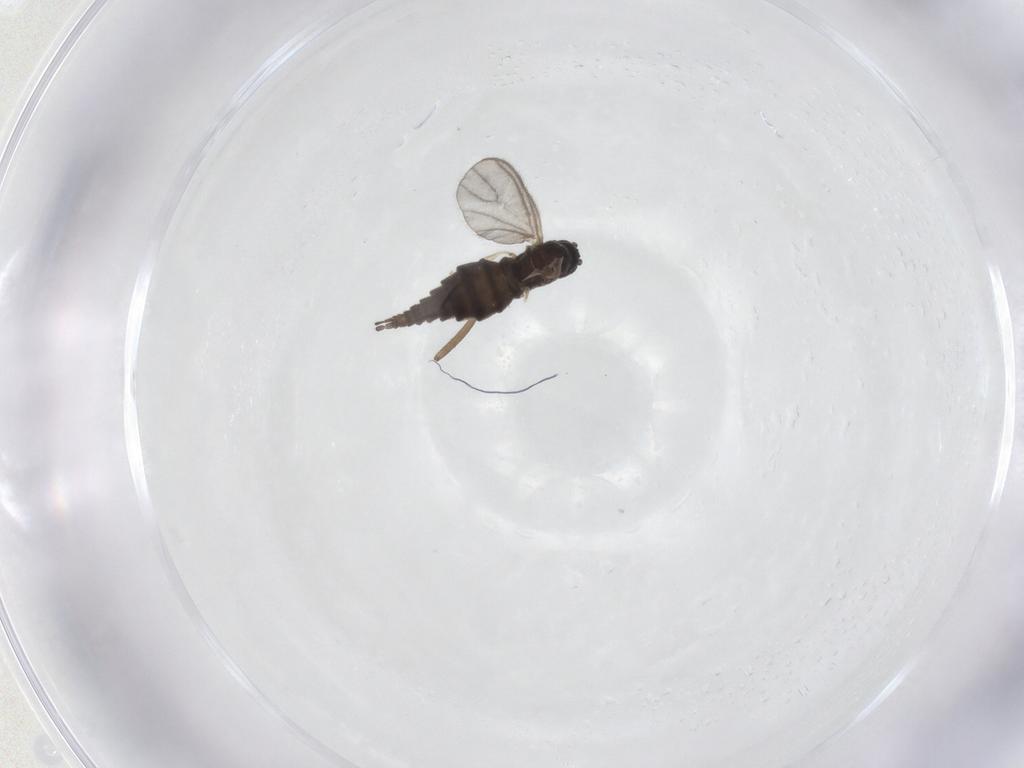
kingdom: Animalia
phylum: Arthropoda
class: Insecta
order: Diptera
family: Sciaridae
